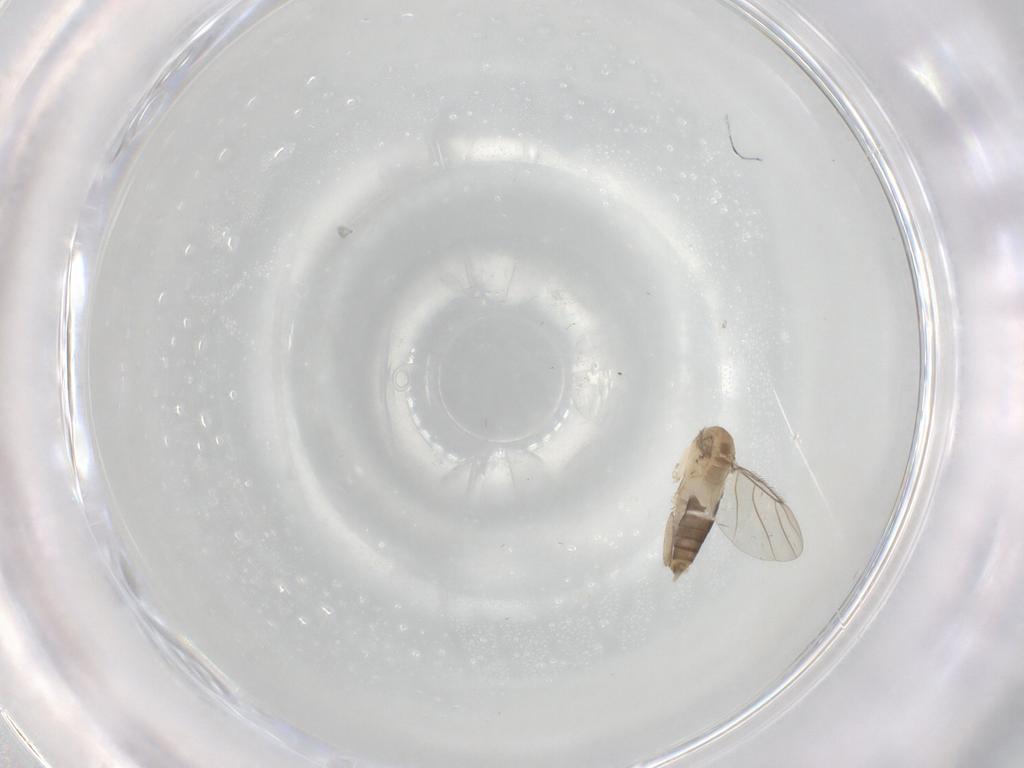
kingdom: Animalia
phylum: Arthropoda
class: Insecta
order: Diptera
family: Phoridae
